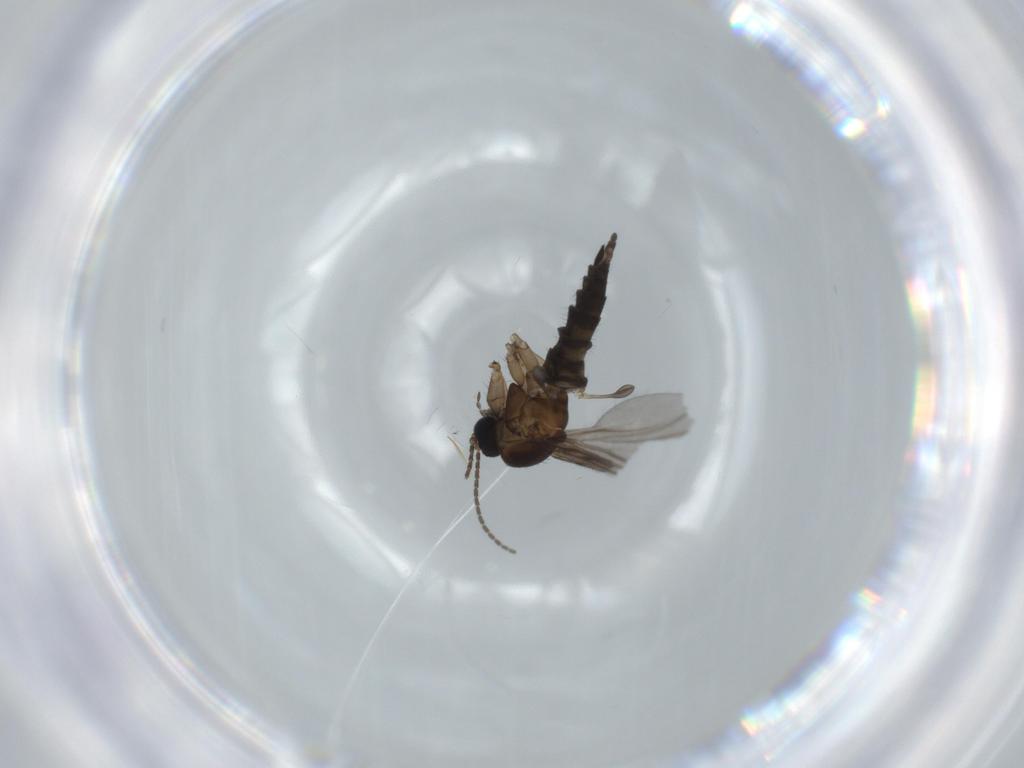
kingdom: Animalia
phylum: Arthropoda
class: Insecta
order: Diptera
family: Sciaridae
